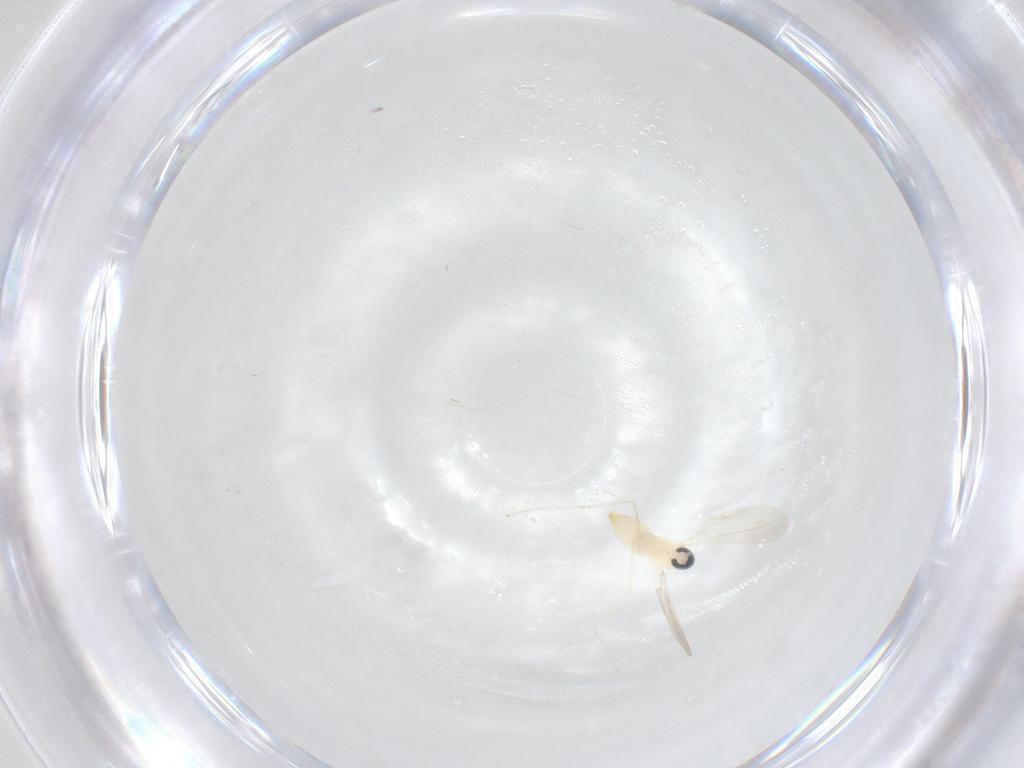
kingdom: Animalia
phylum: Arthropoda
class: Insecta
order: Diptera
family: Cecidomyiidae
